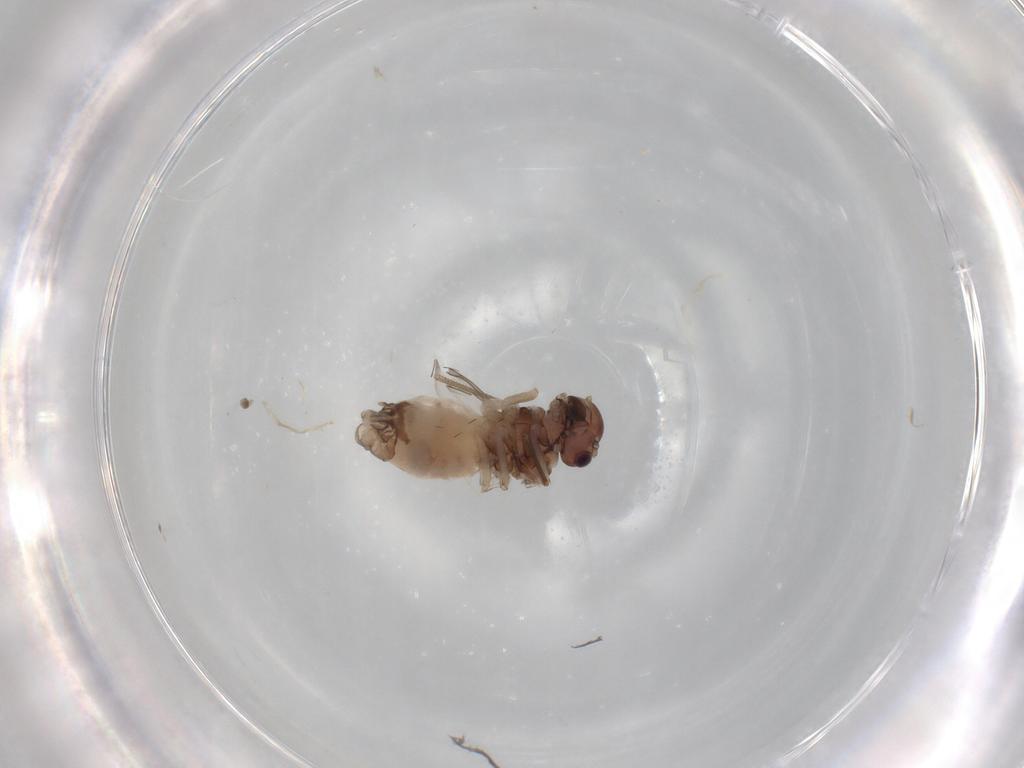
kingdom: Animalia
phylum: Arthropoda
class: Insecta
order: Psocodea
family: Peripsocidae
